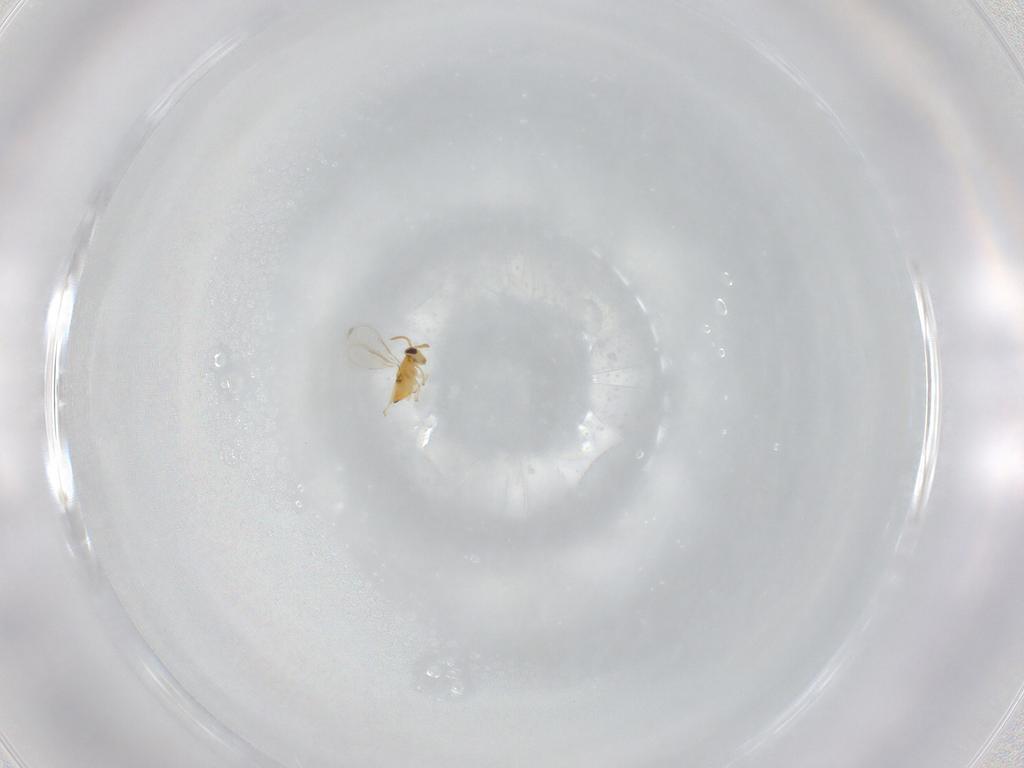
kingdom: Animalia
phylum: Arthropoda
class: Insecta
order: Hymenoptera
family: Aphelinidae
